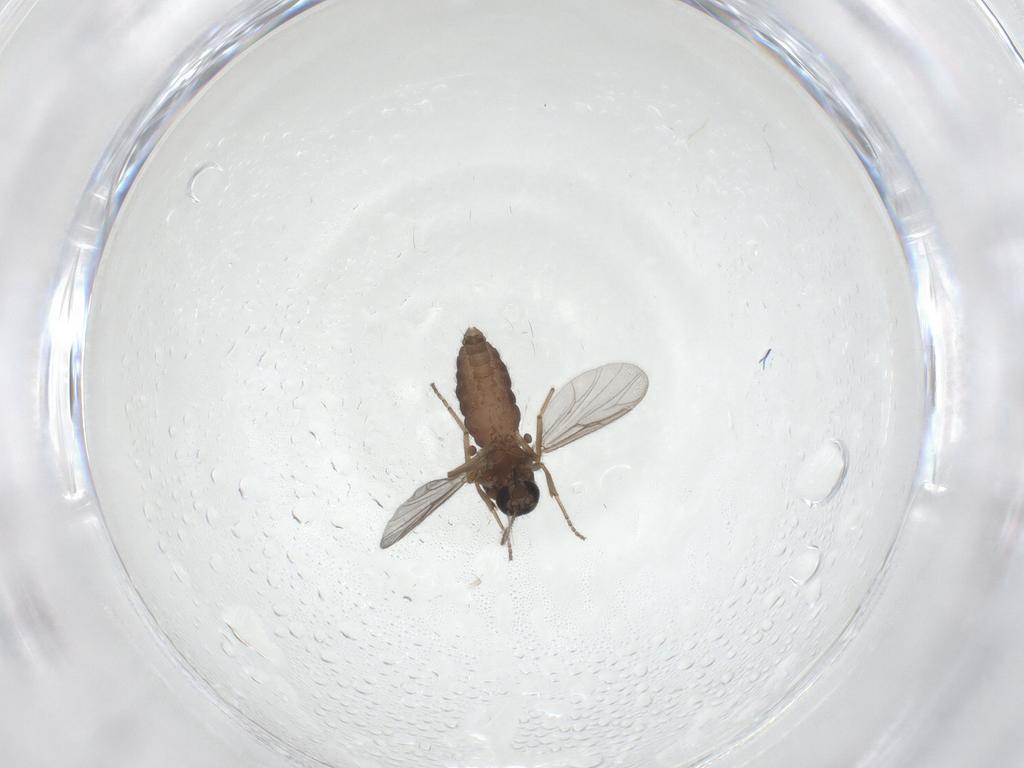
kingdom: Animalia
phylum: Arthropoda
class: Insecta
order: Diptera
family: Ceratopogonidae
